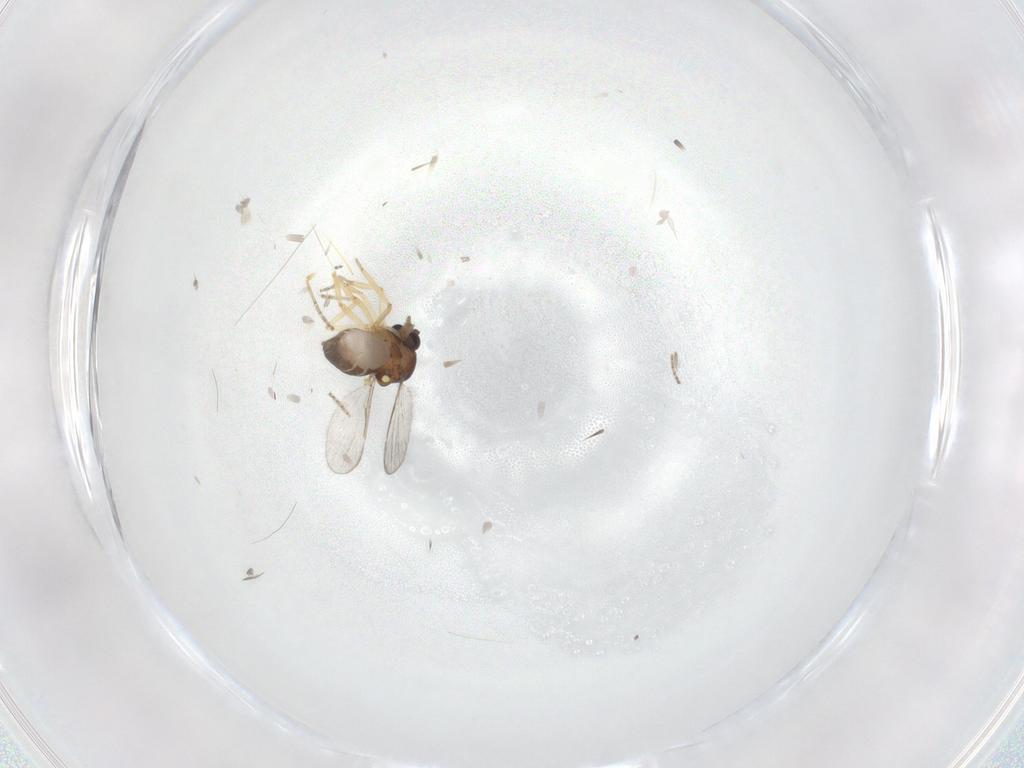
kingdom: Animalia
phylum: Arthropoda
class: Insecta
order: Diptera
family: Ceratopogonidae
